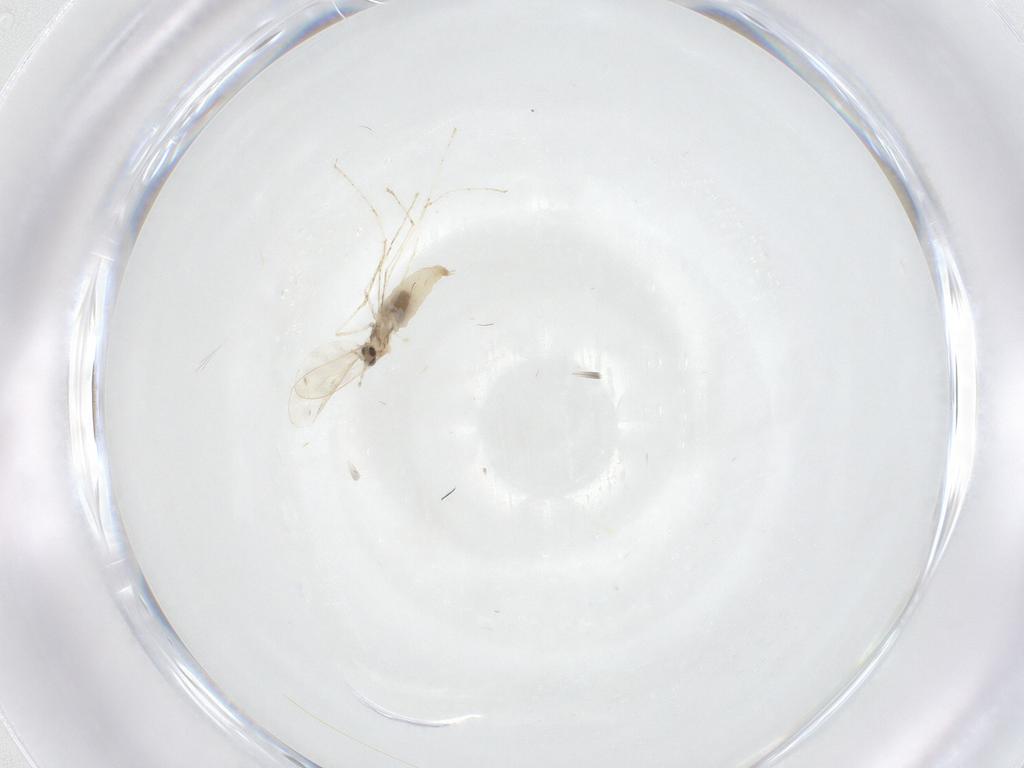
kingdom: Animalia
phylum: Arthropoda
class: Insecta
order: Diptera
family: Cecidomyiidae
